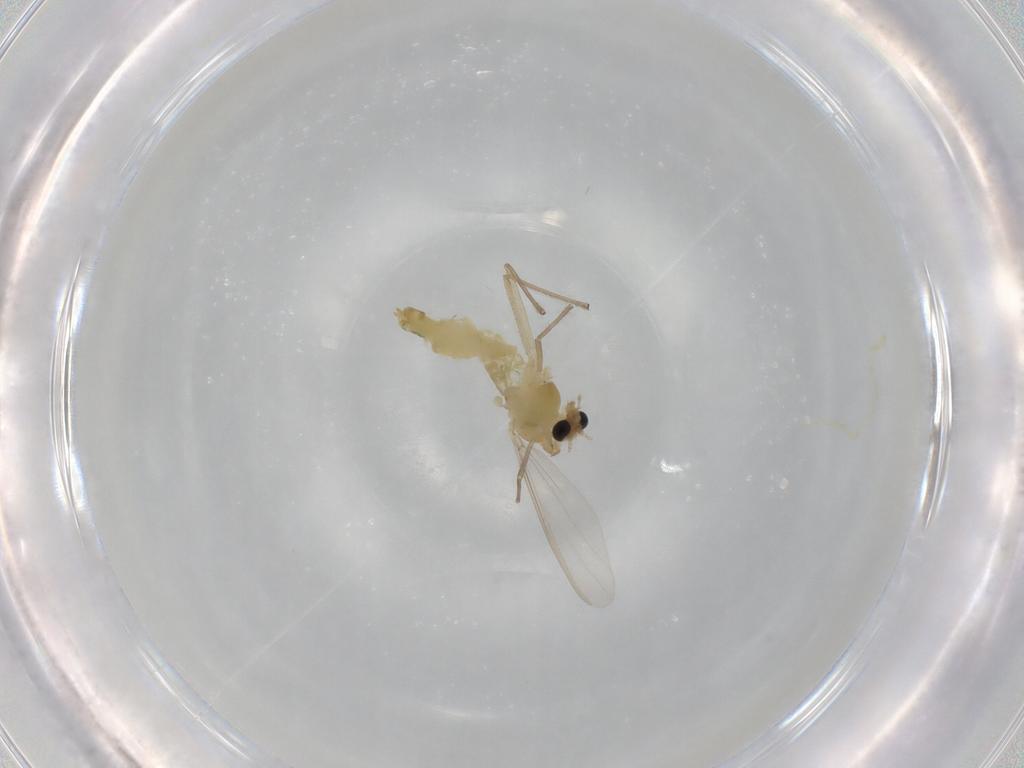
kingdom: Animalia
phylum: Arthropoda
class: Insecta
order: Diptera
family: Chironomidae
